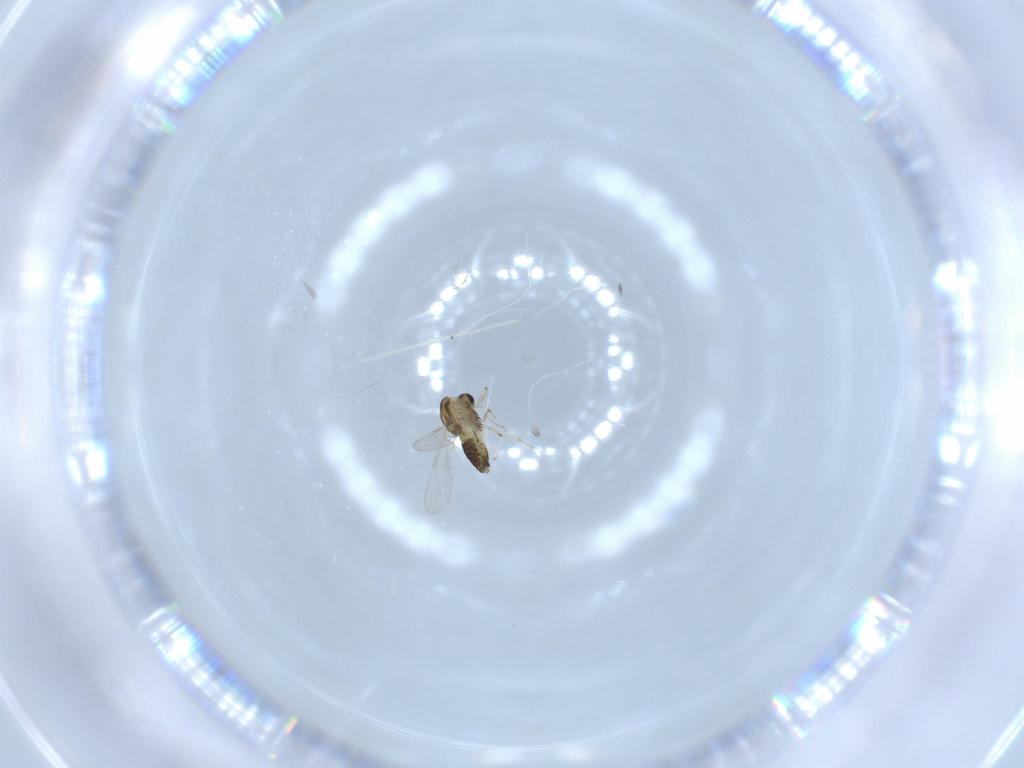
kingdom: Animalia
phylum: Arthropoda
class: Insecta
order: Diptera
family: Chironomidae
